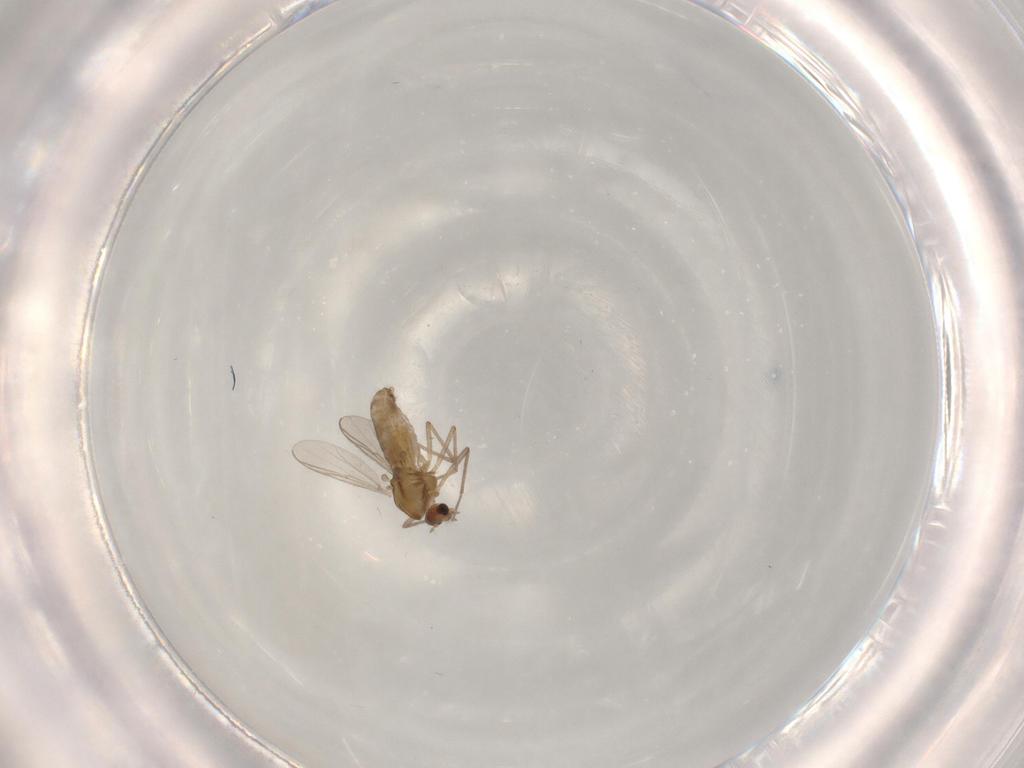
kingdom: Animalia
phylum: Arthropoda
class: Insecta
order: Diptera
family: Chironomidae
